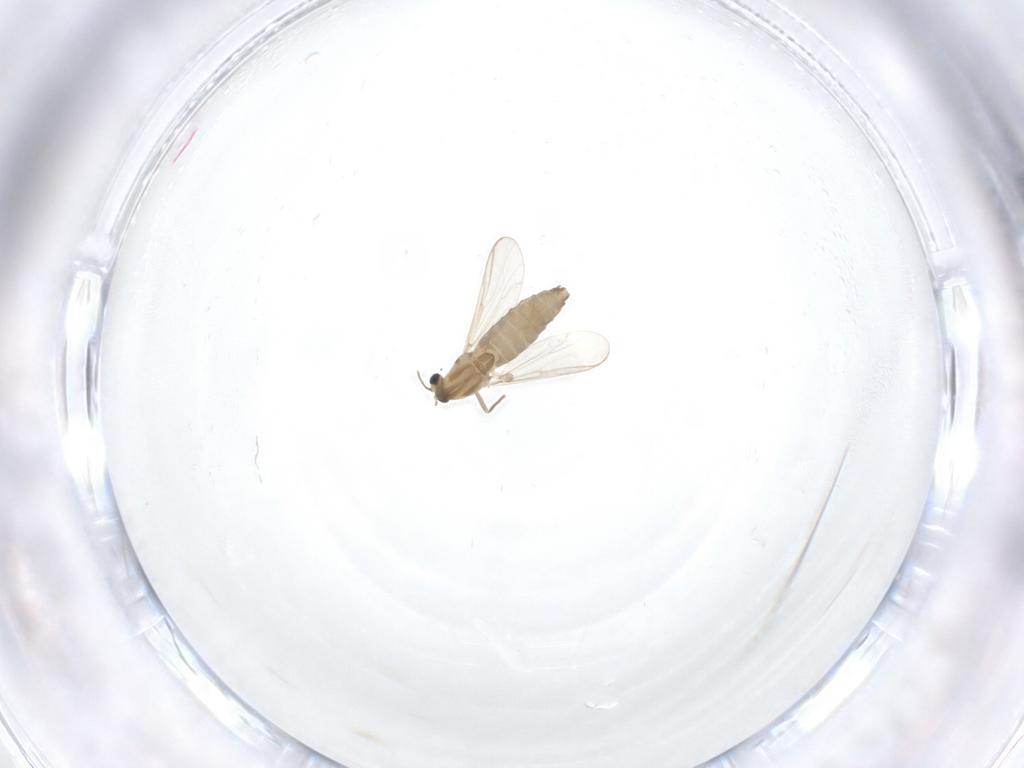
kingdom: Animalia
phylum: Arthropoda
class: Insecta
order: Diptera
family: Chironomidae
